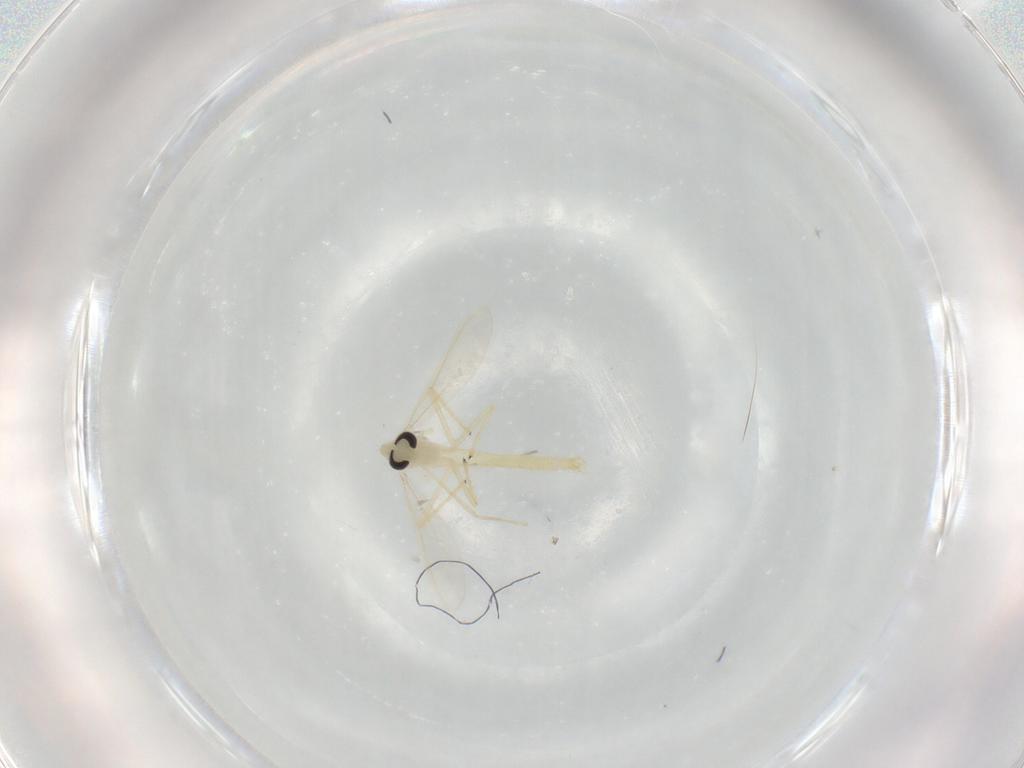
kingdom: Animalia
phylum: Arthropoda
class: Insecta
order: Diptera
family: Chironomidae
